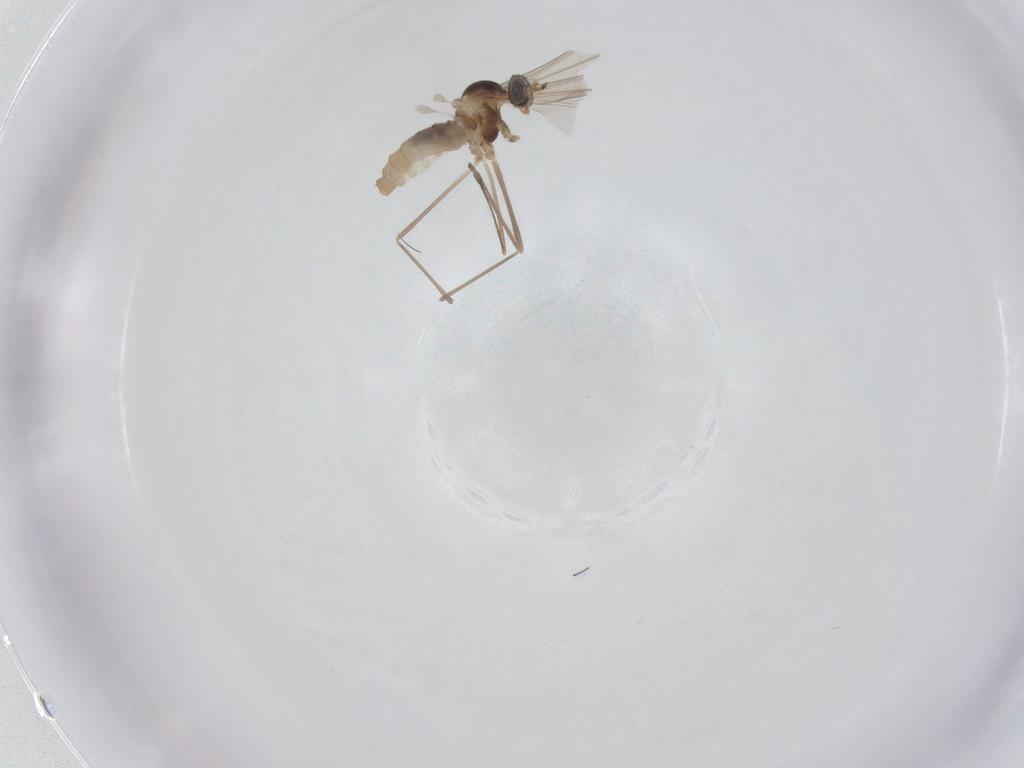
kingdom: Animalia
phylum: Arthropoda
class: Insecta
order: Diptera
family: Cecidomyiidae
